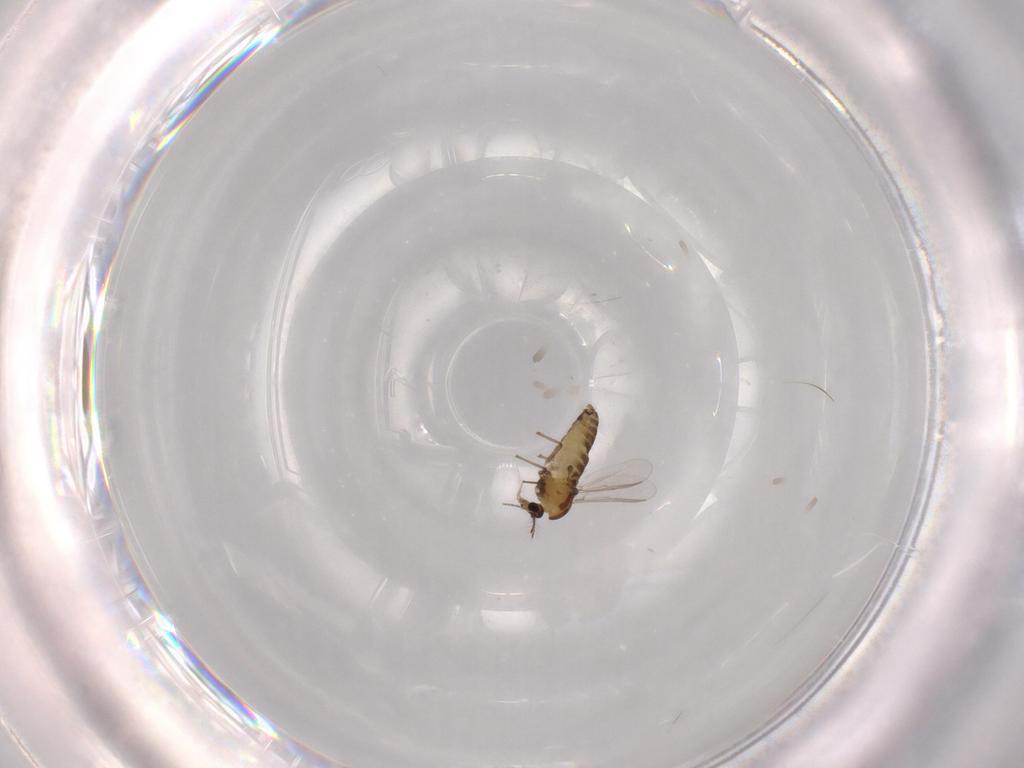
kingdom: Animalia
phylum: Arthropoda
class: Insecta
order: Diptera
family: Chironomidae
